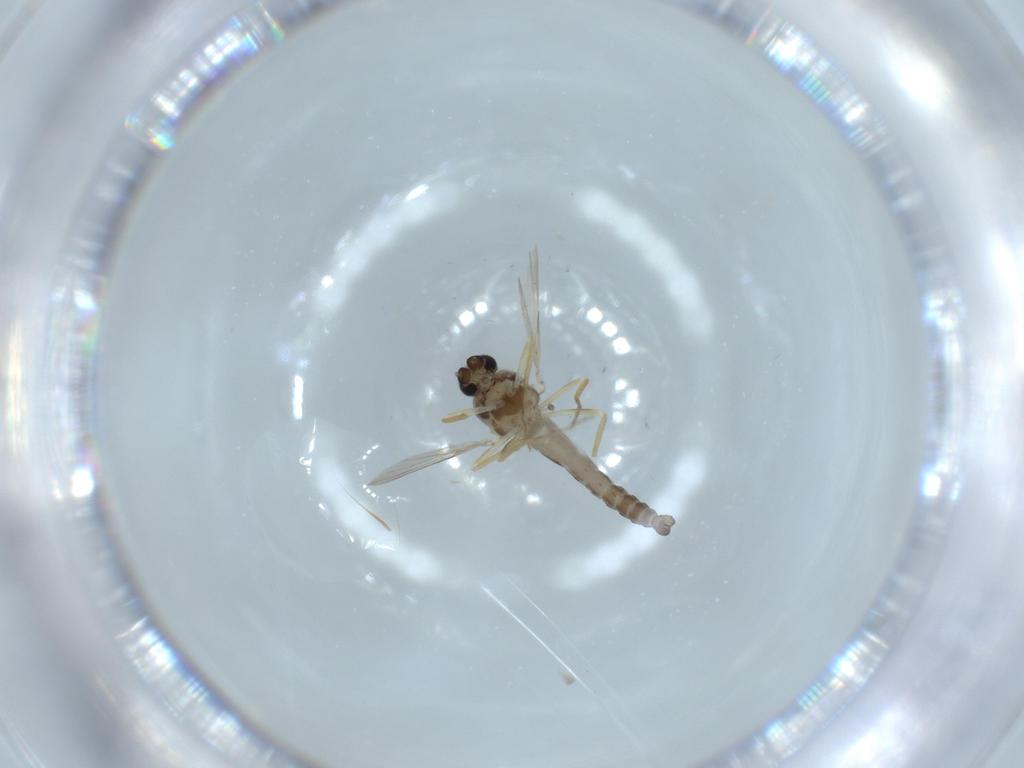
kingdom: Animalia
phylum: Arthropoda
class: Insecta
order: Diptera
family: Ceratopogonidae
